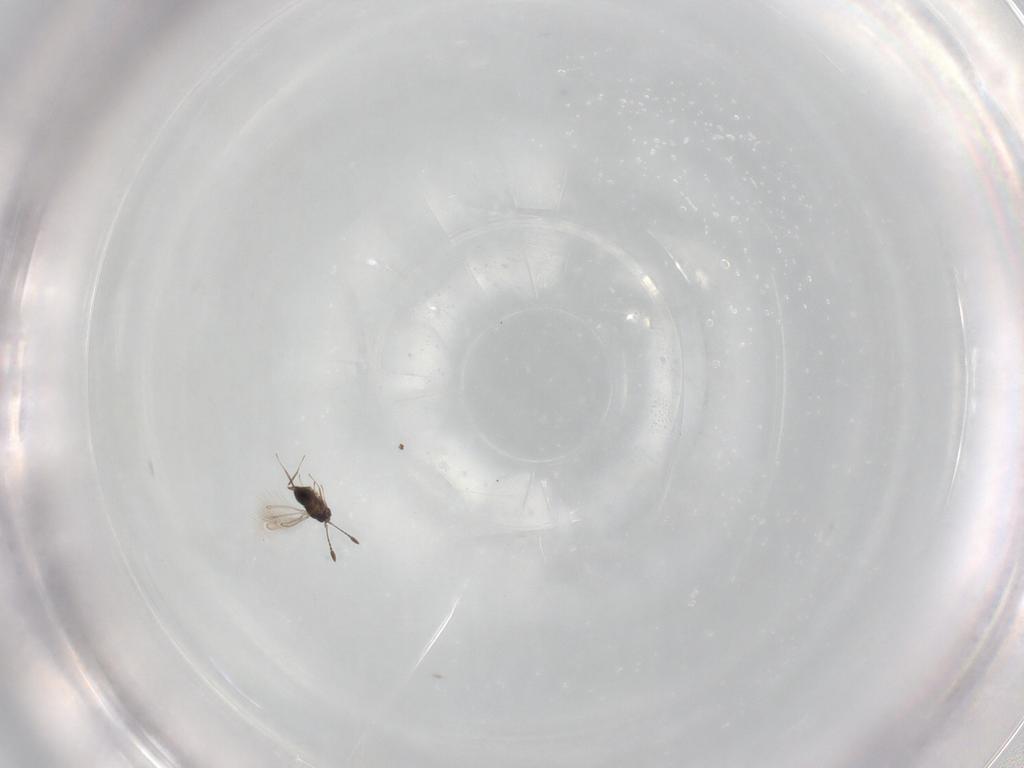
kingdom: Animalia
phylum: Arthropoda
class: Insecta
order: Hymenoptera
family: Mymaridae
